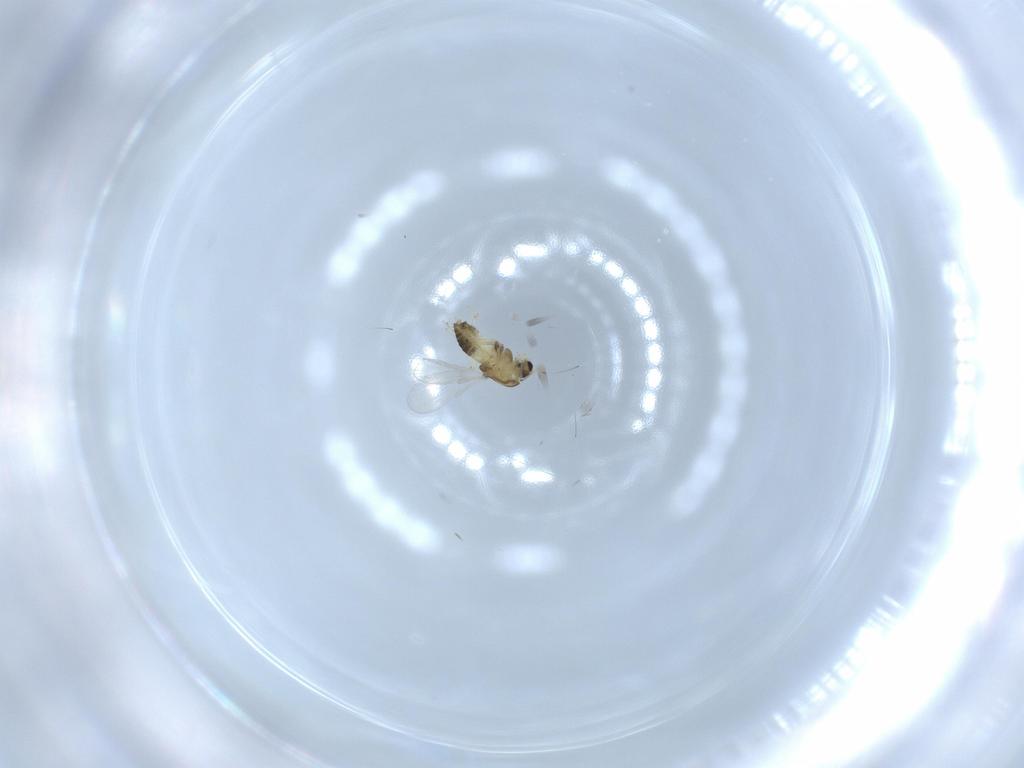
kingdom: Animalia
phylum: Arthropoda
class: Insecta
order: Diptera
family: Chironomidae
